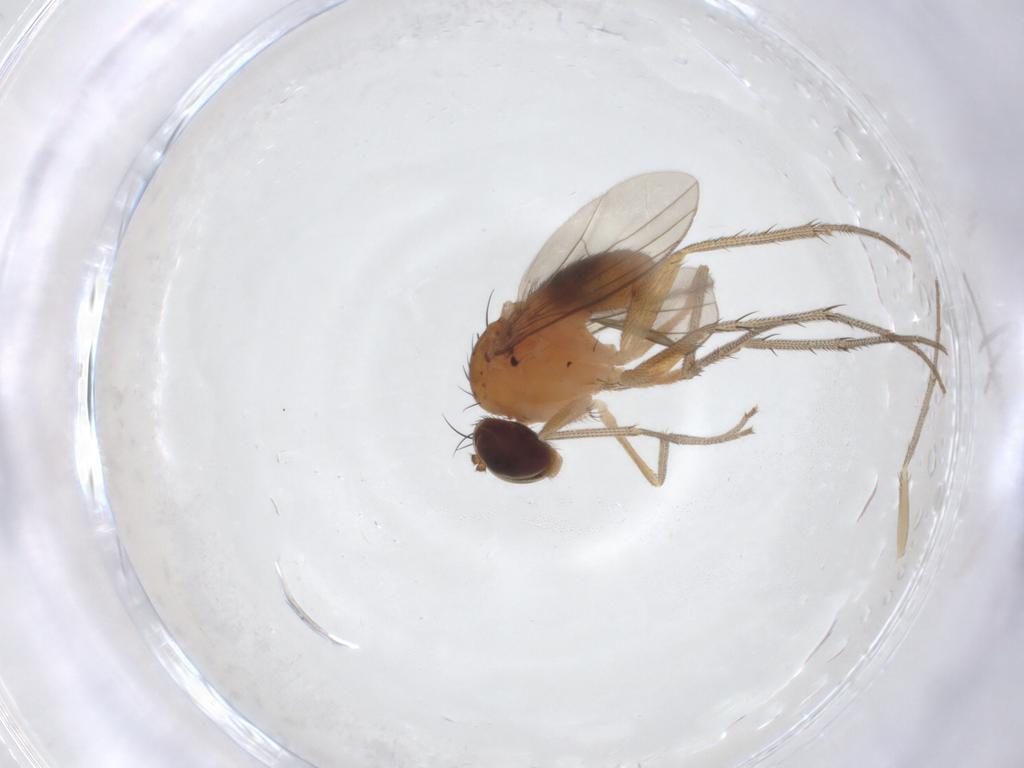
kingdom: Animalia
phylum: Arthropoda
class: Insecta
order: Diptera
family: Dolichopodidae
